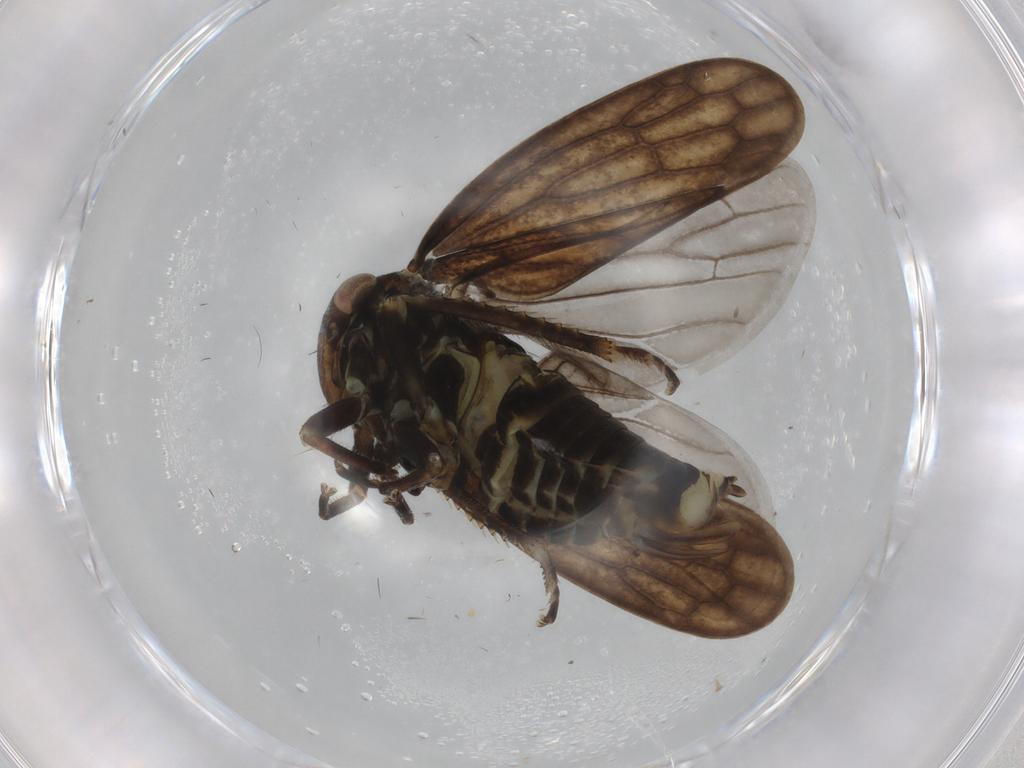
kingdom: Animalia
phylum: Arthropoda
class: Insecta
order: Hemiptera
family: Cicadellidae
